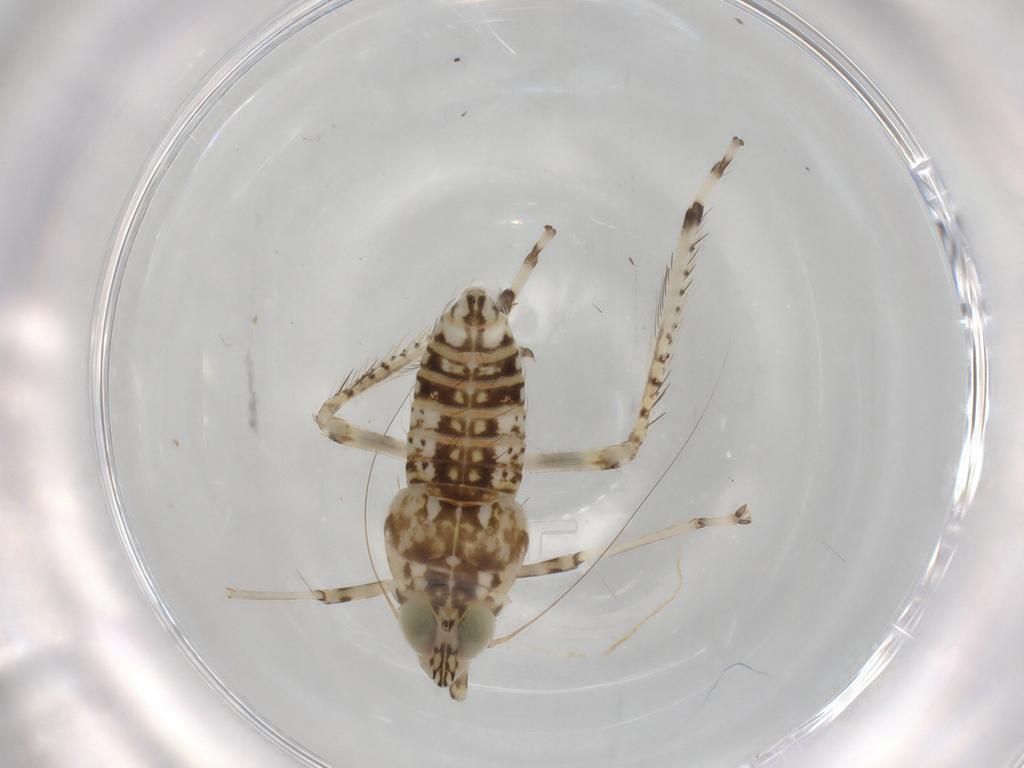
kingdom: Animalia
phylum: Arthropoda
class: Insecta
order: Hemiptera
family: Cicadellidae
